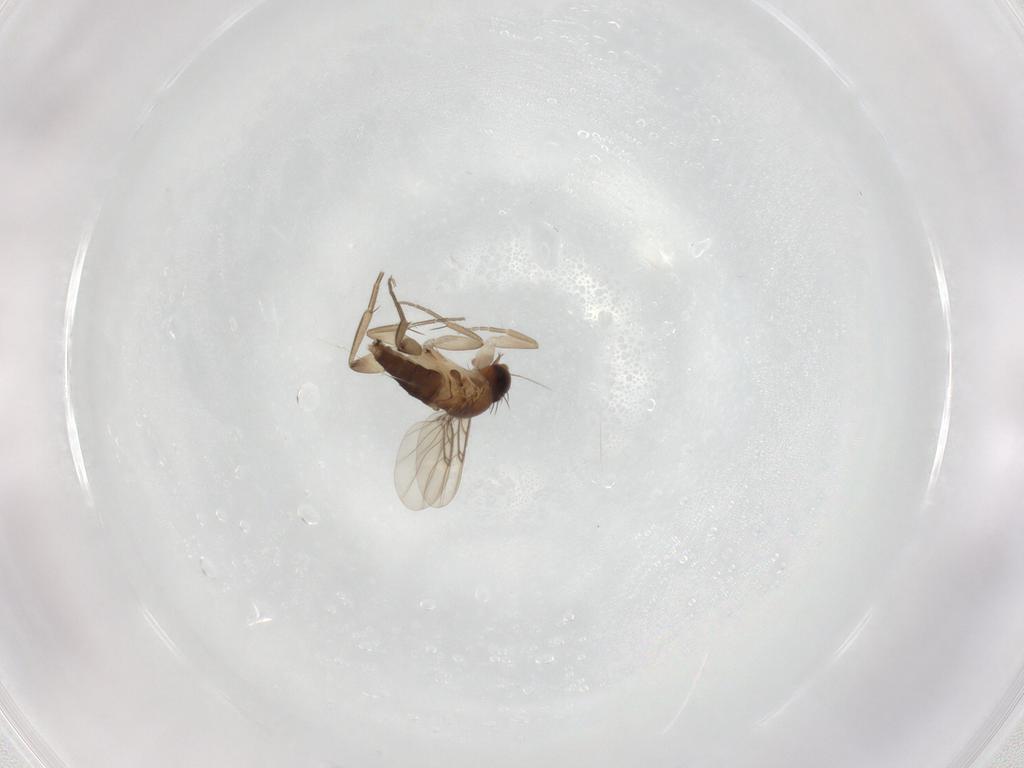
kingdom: Animalia
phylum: Arthropoda
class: Insecta
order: Diptera
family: Phoridae
